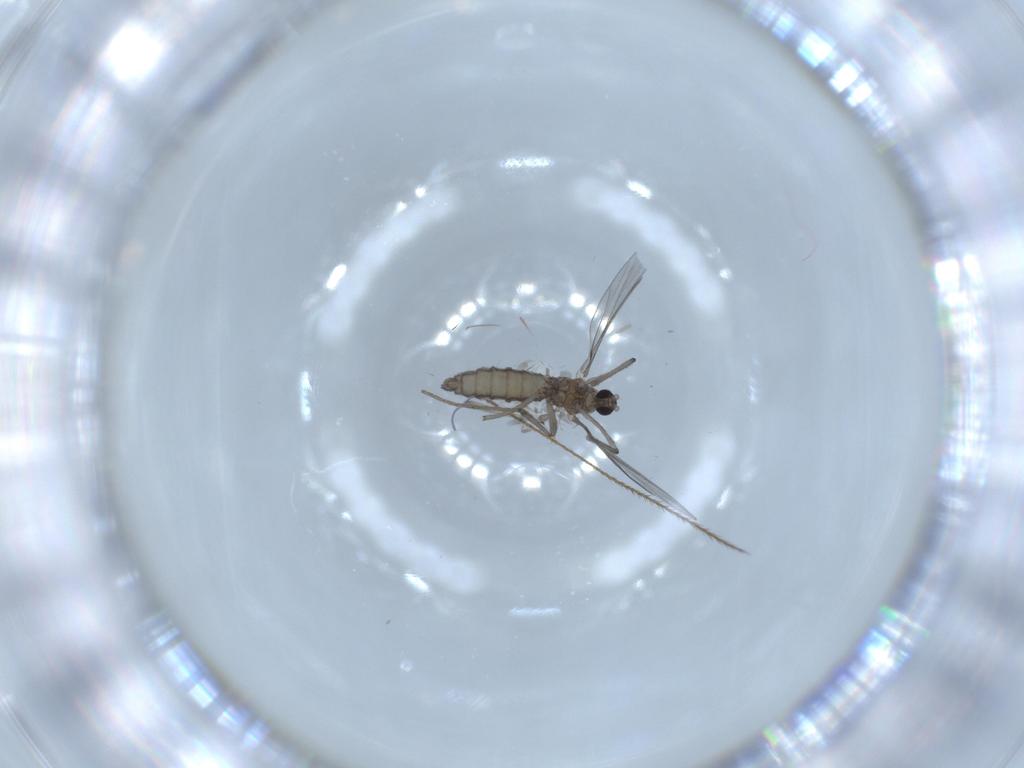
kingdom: Animalia
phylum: Arthropoda
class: Insecta
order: Diptera
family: Cecidomyiidae
